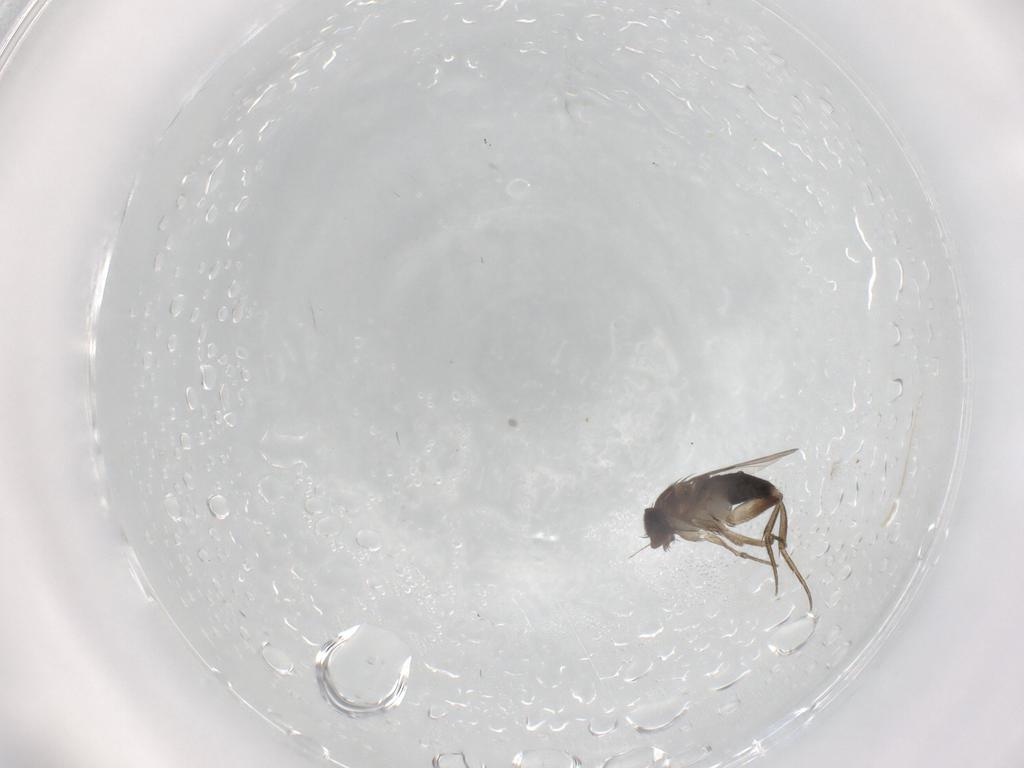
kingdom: Animalia
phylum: Arthropoda
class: Insecta
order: Diptera
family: Phoridae
